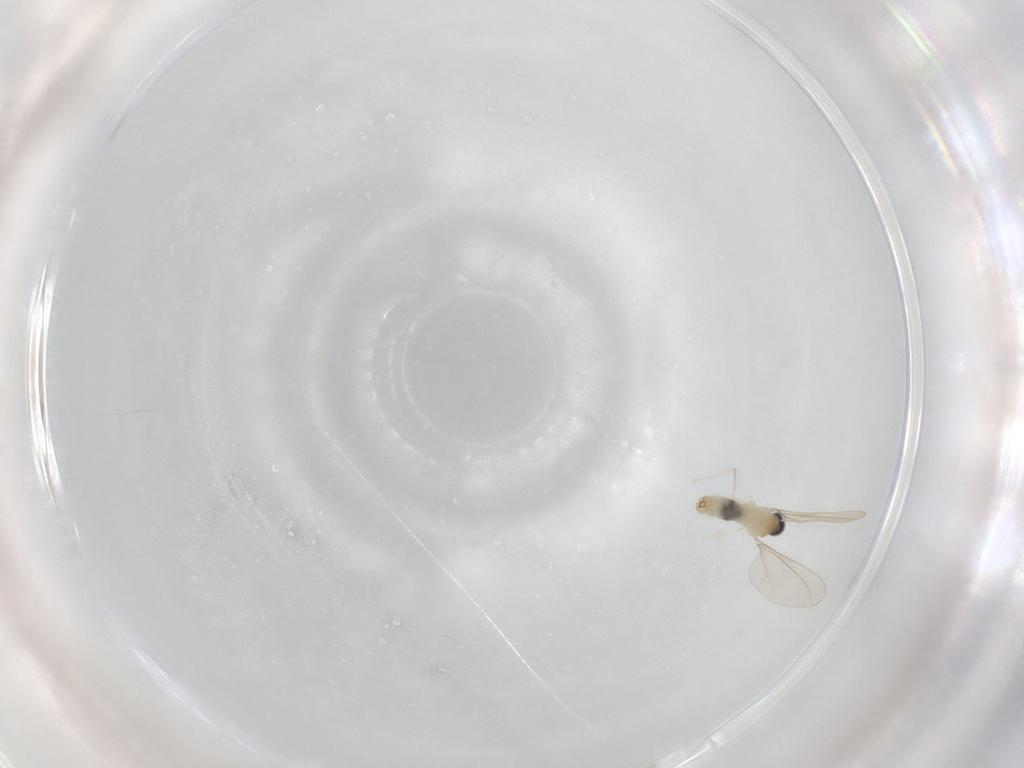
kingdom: Animalia
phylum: Arthropoda
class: Insecta
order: Diptera
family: Cecidomyiidae
